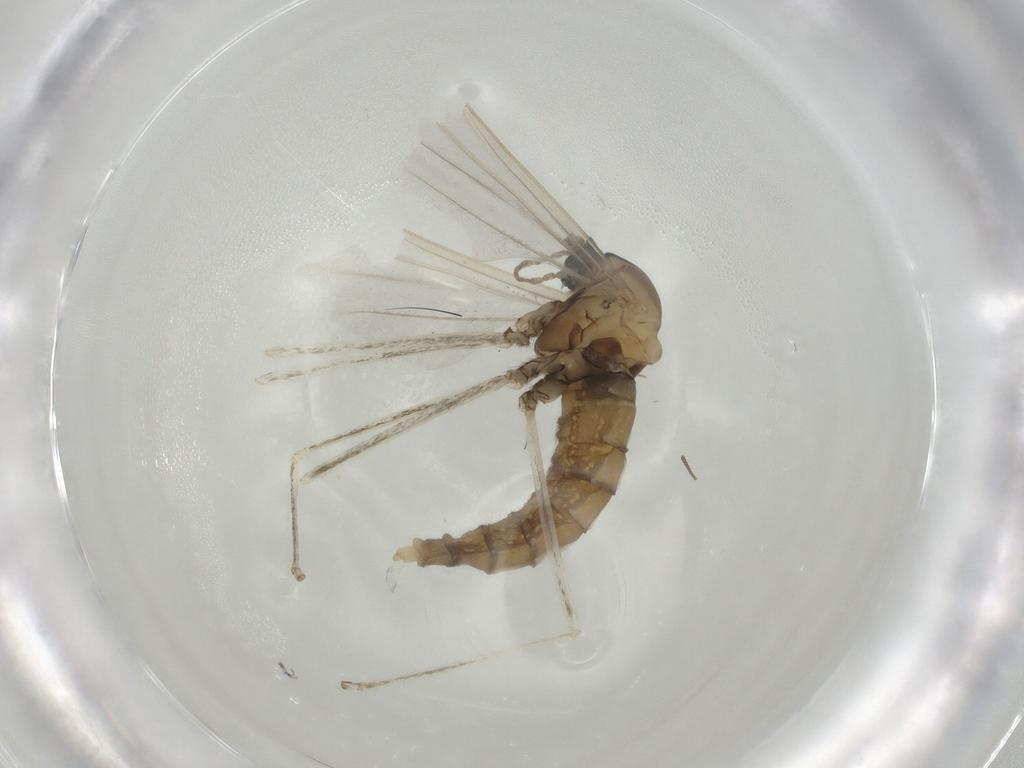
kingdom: Animalia
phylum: Arthropoda
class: Insecta
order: Diptera
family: Cecidomyiidae
